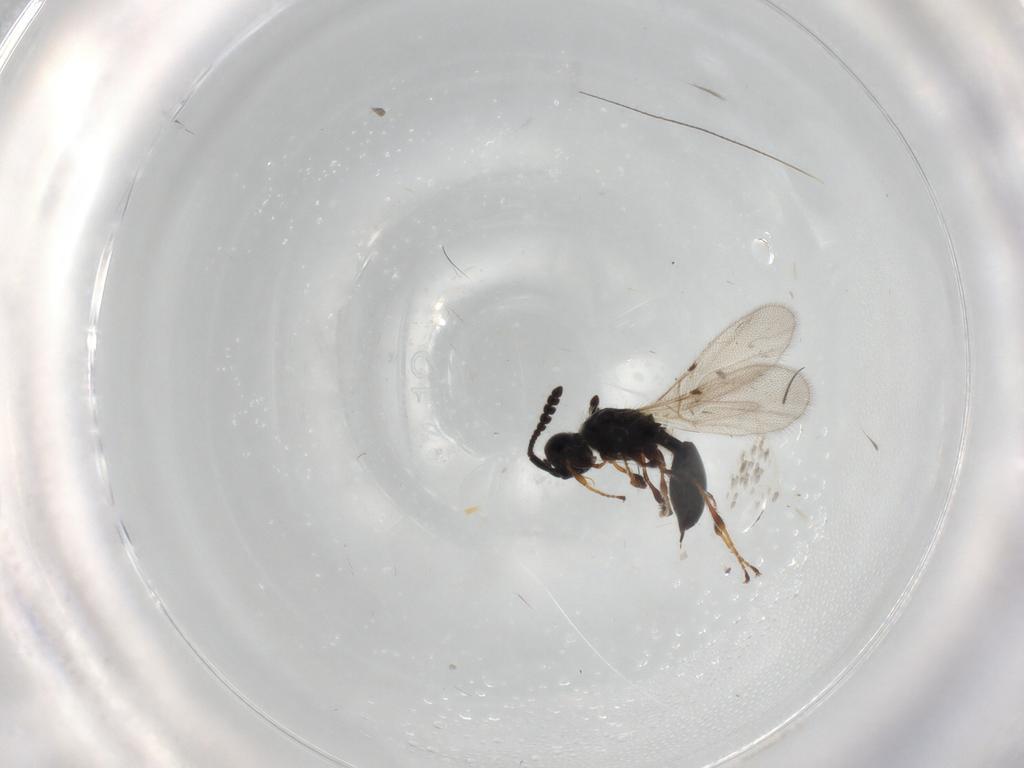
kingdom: Animalia
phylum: Arthropoda
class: Insecta
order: Hymenoptera
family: Diapriidae
